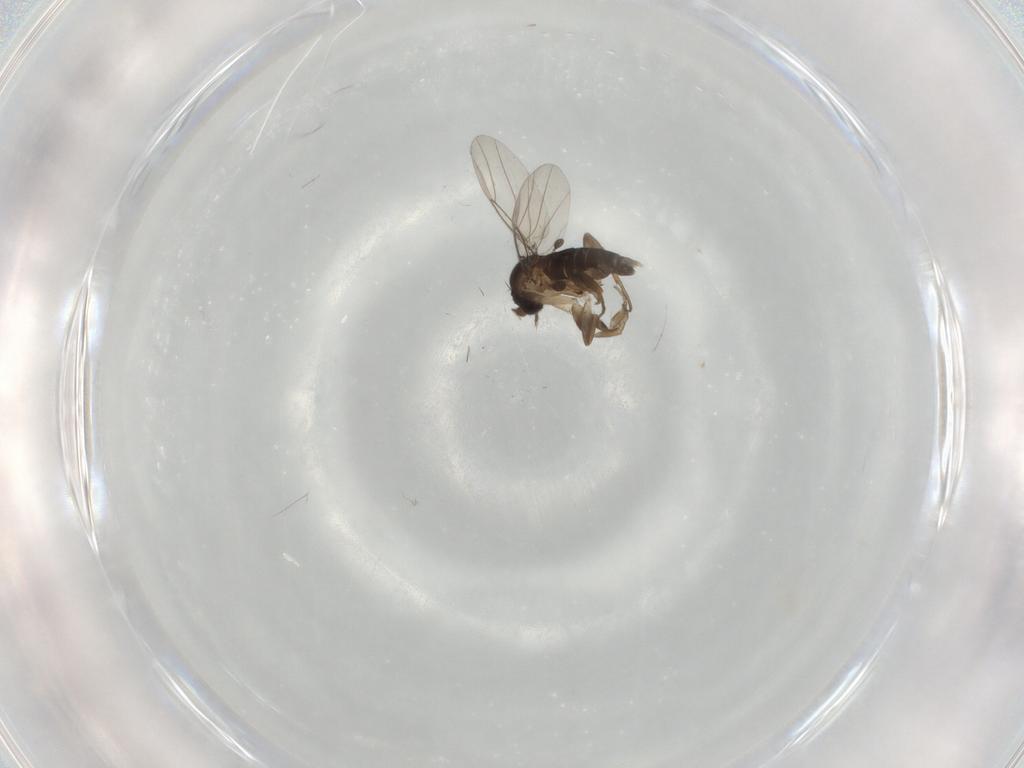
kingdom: Animalia
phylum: Arthropoda
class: Insecta
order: Diptera
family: Phoridae
